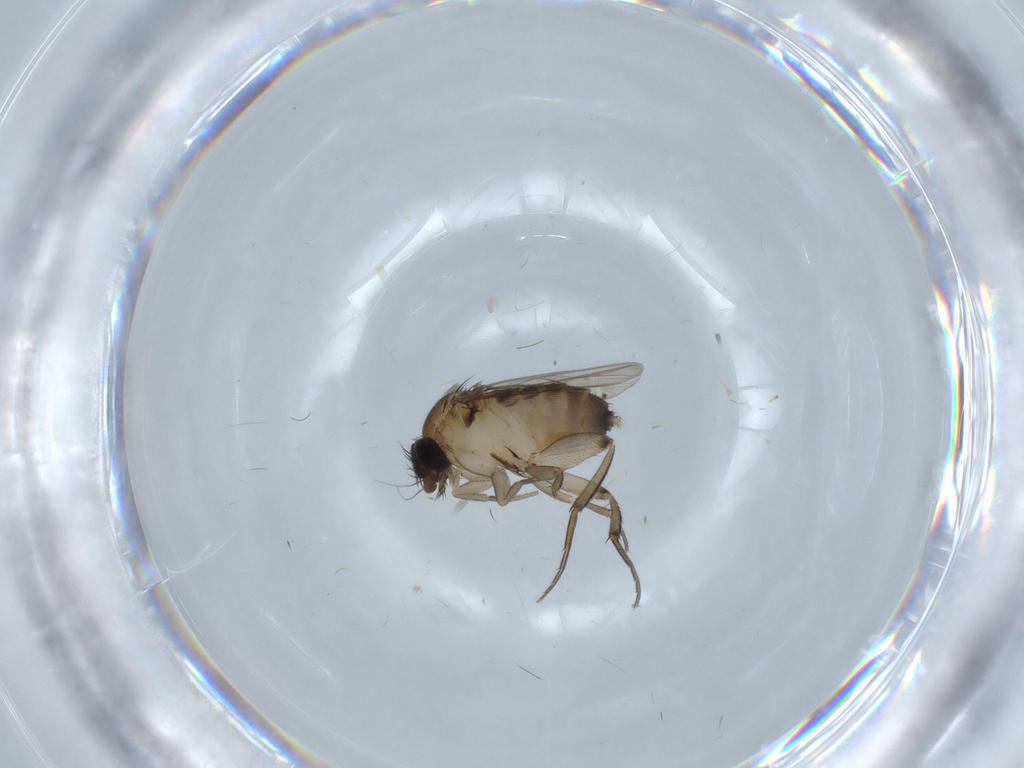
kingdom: Animalia
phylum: Arthropoda
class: Insecta
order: Diptera
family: Phoridae
